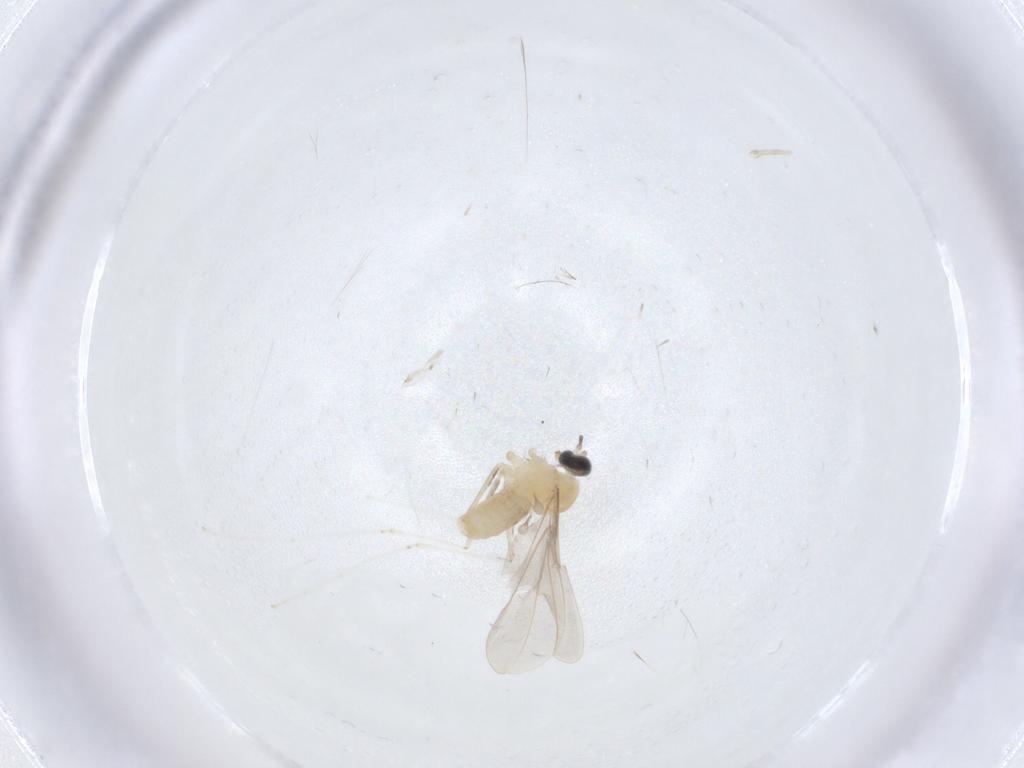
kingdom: Animalia
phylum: Arthropoda
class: Insecta
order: Diptera
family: Cecidomyiidae
